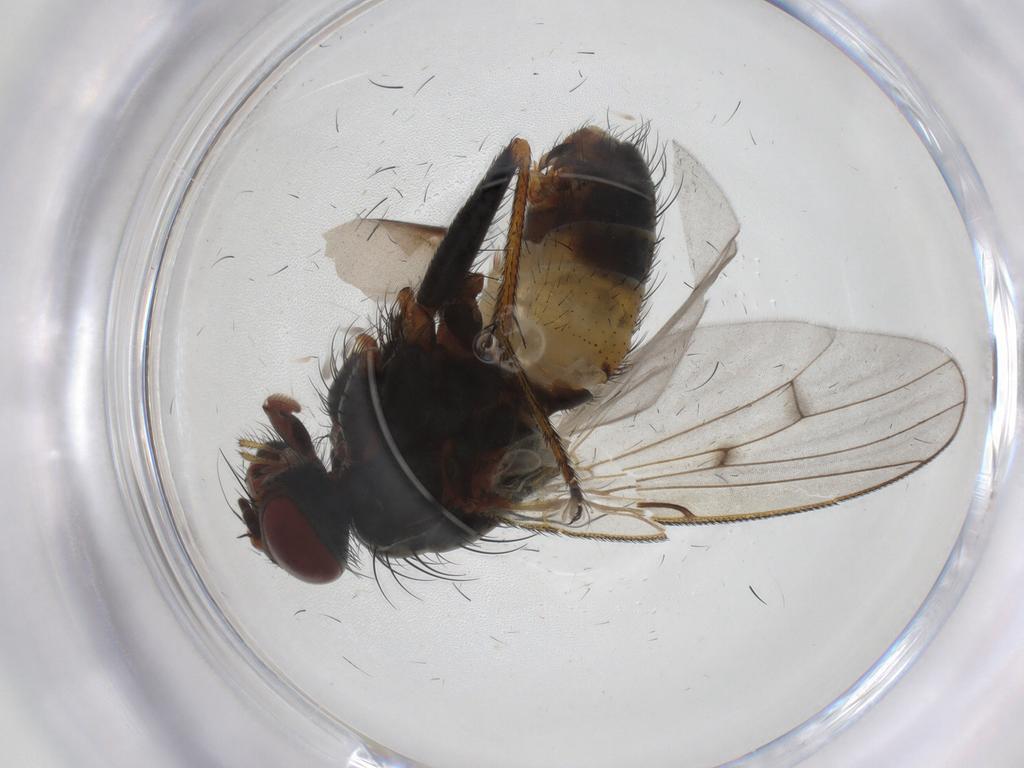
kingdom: Animalia
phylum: Arthropoda
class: Insecta
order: Diptera
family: Muscidae
